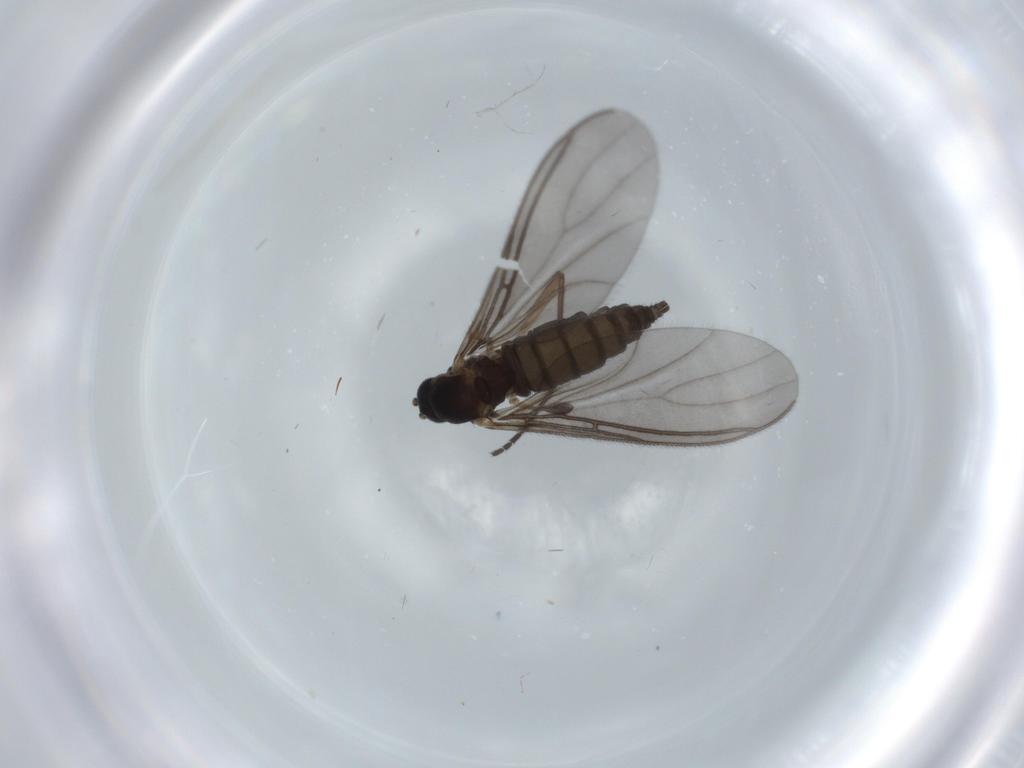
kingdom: Animalia
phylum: Arthropoda
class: Insecta
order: Diptera
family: Sciaridae
